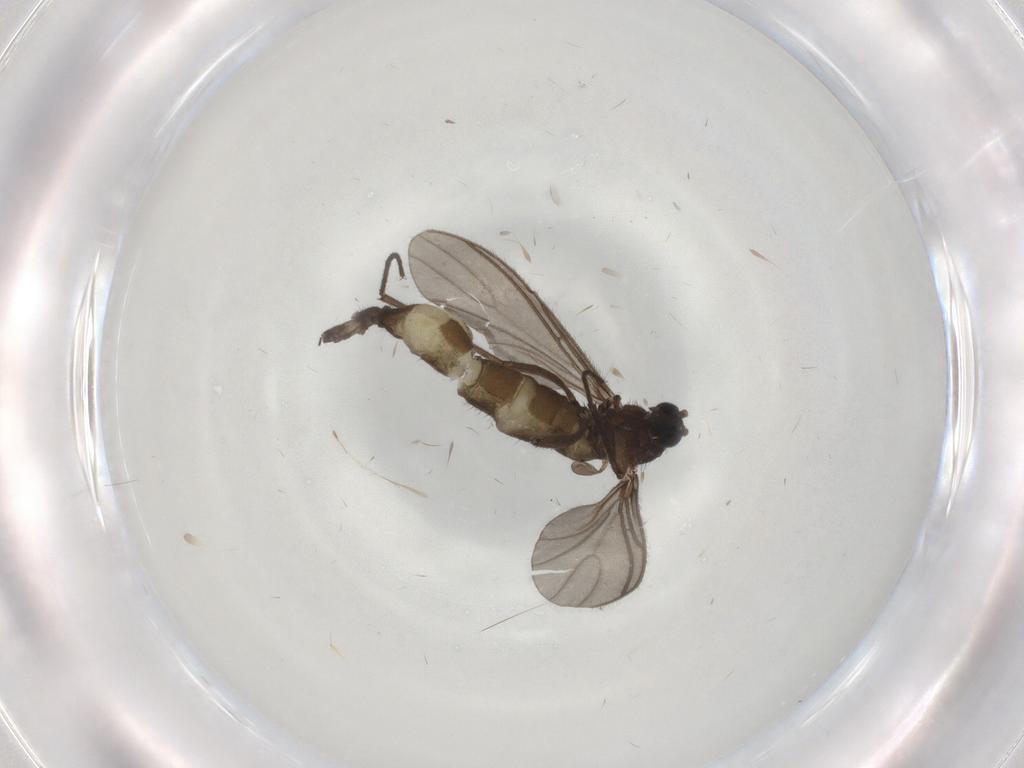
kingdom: Animalia
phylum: Arthropoda
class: Insecta
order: Diptera
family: Sciaridae
